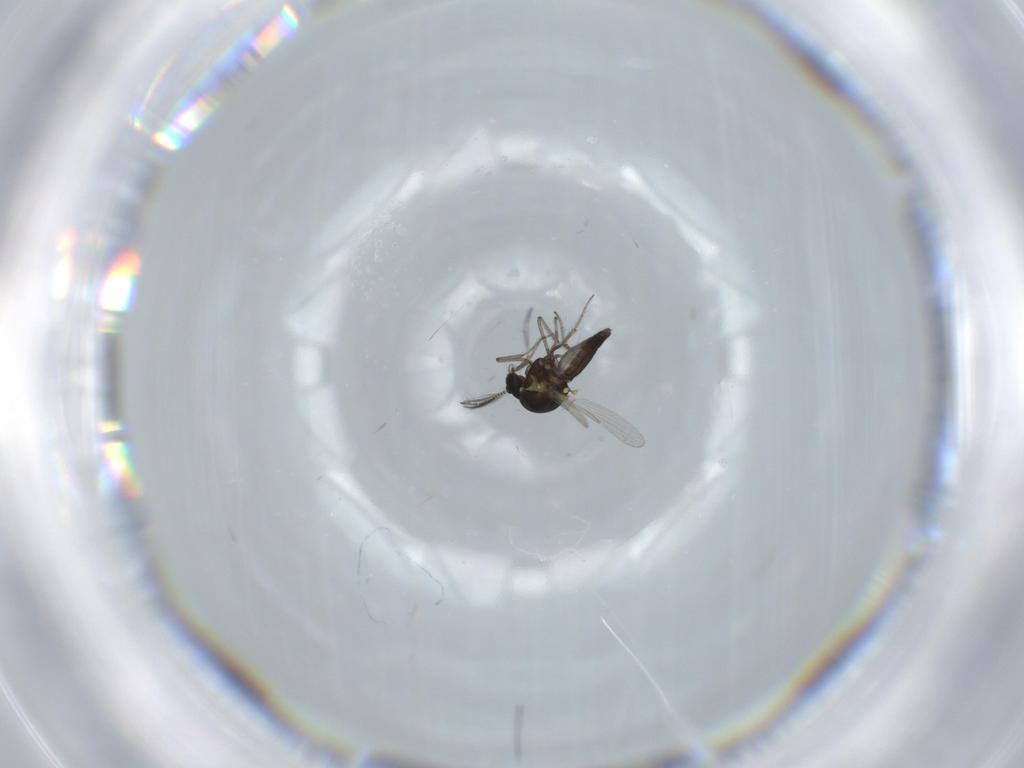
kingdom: Animalia
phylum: Arthropoda
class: Insecta
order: Diptera
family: Ceratopogonidae
